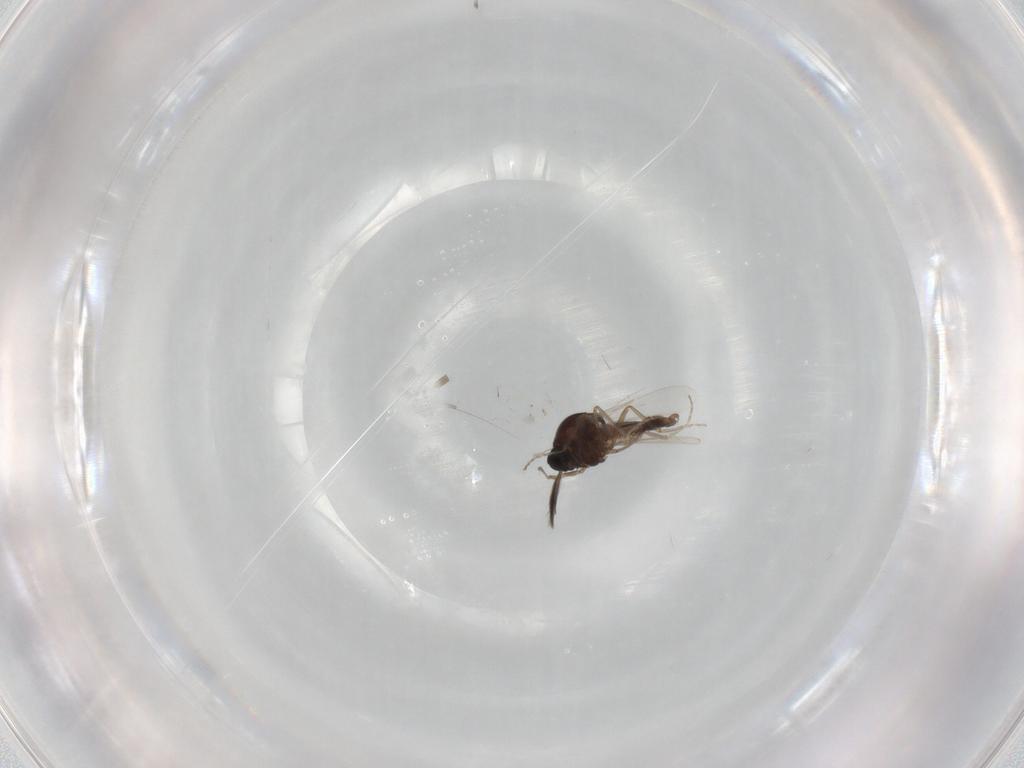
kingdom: Animalia
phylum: Arthropoda
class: Insecta
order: Diptera
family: Ceratopogonidae
